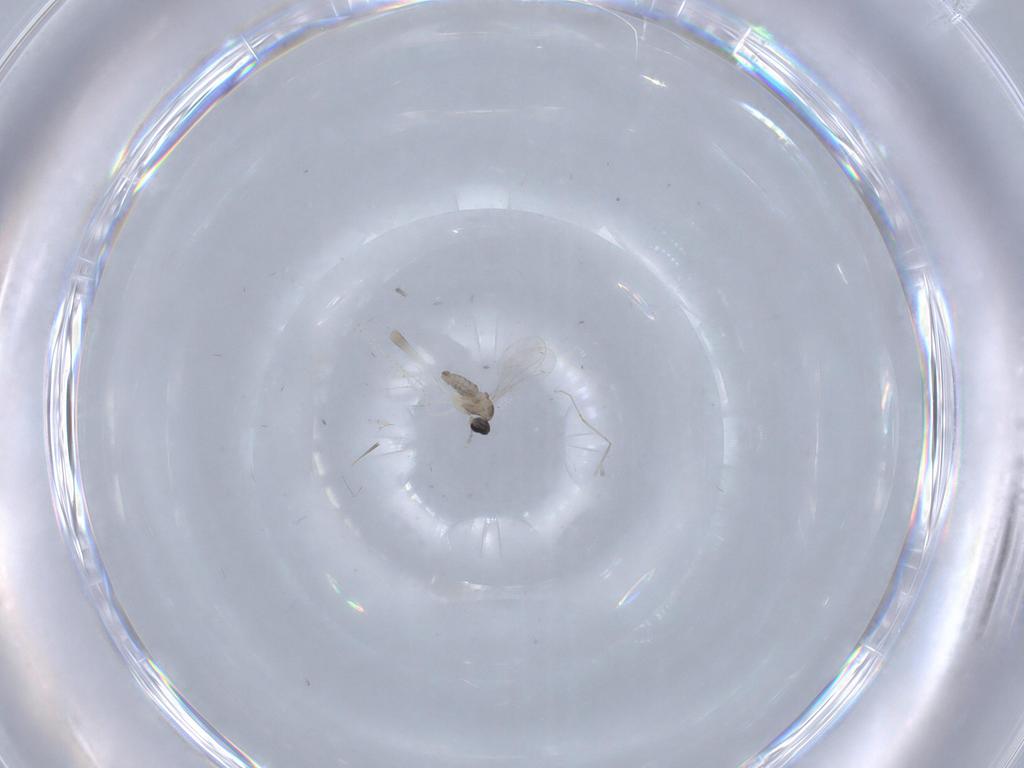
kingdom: Animalia
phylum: Arthropoda
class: Insecta
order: Diptera
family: Cecidomyiidae
